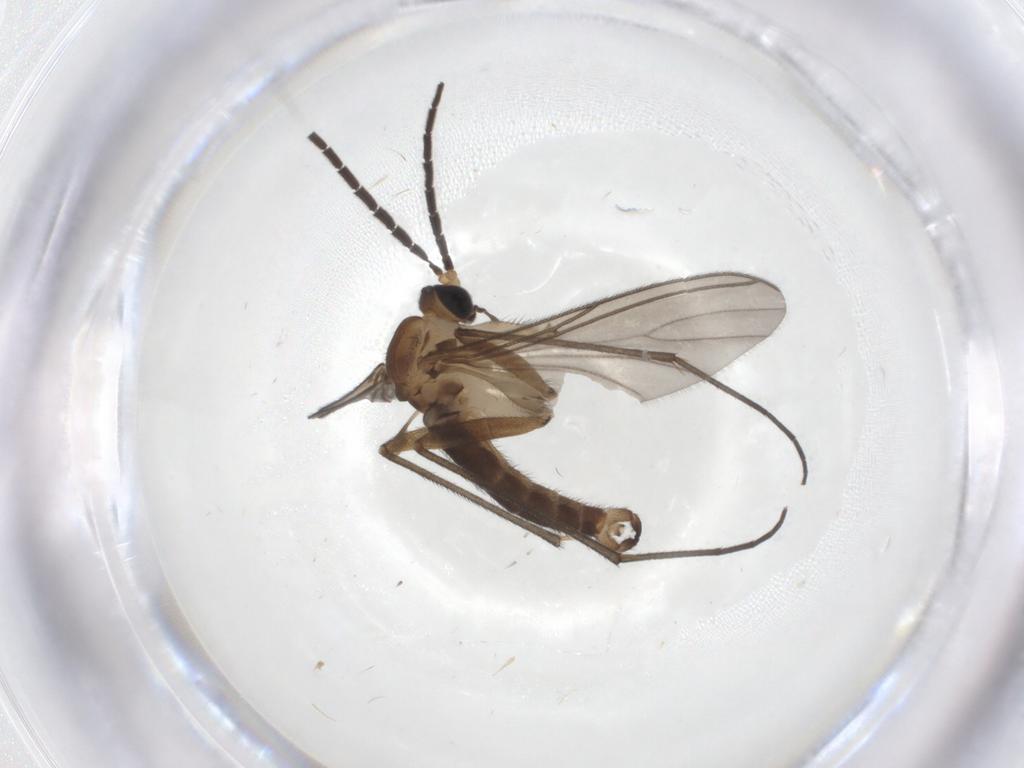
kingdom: Animalia
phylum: Arthropoda
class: Insecta
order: Diptera
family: Sciaridae
